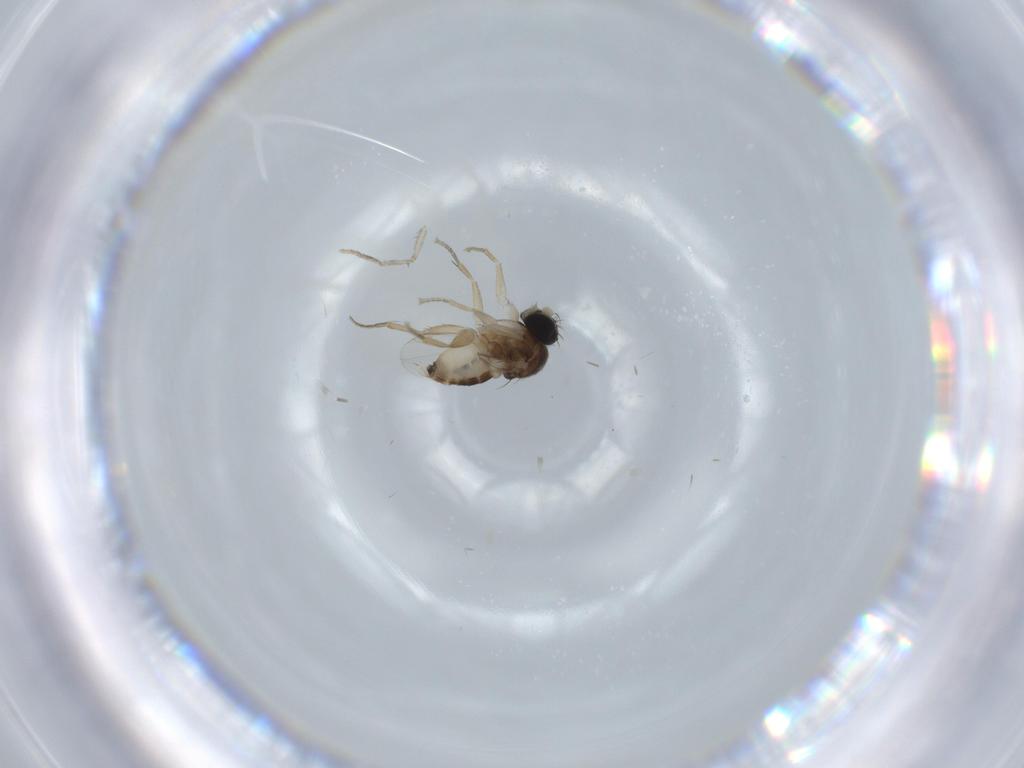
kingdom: Animalia
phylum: Arthropoda
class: Insecta
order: Diptera
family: Phoridae
